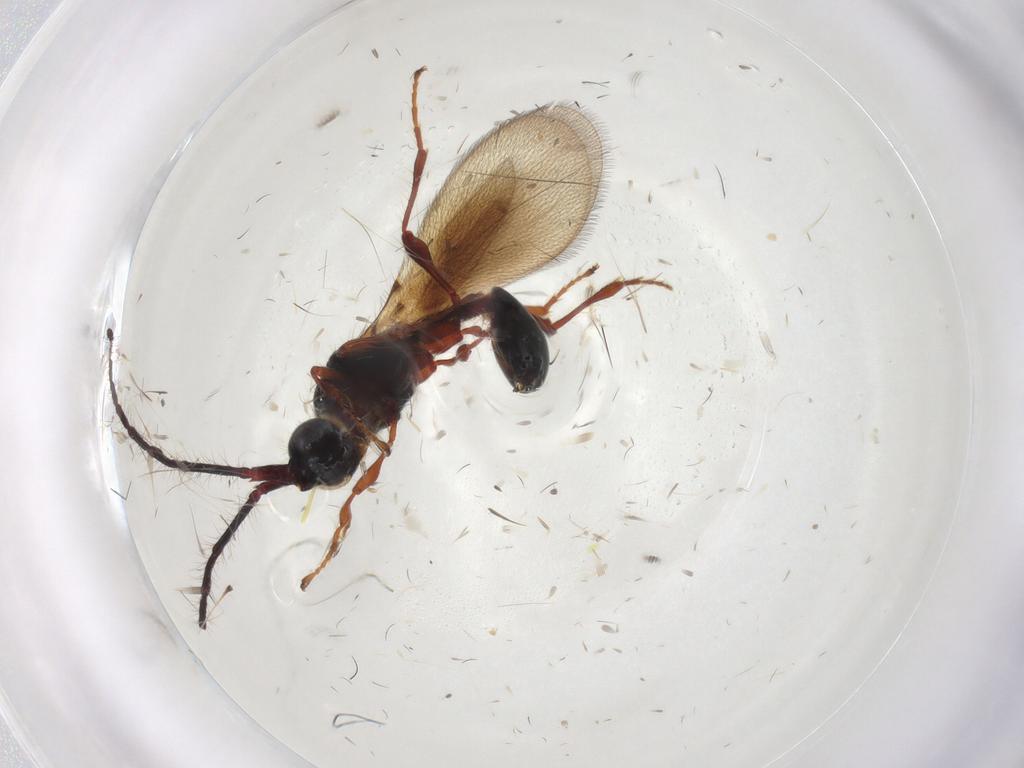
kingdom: Animalia
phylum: Arthropoda
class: Insecta
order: Hymenoptera
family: Diapriidae
